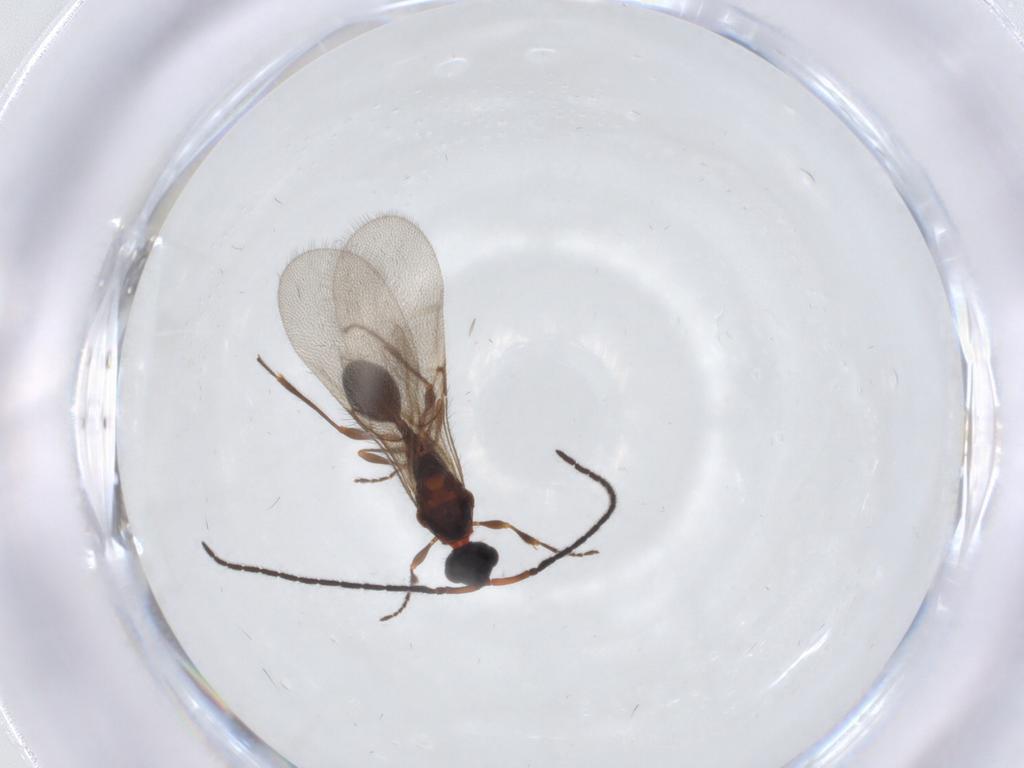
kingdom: Animalia
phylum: Arthropoda
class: Insecta
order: Hymenoptera
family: Diapriidae
